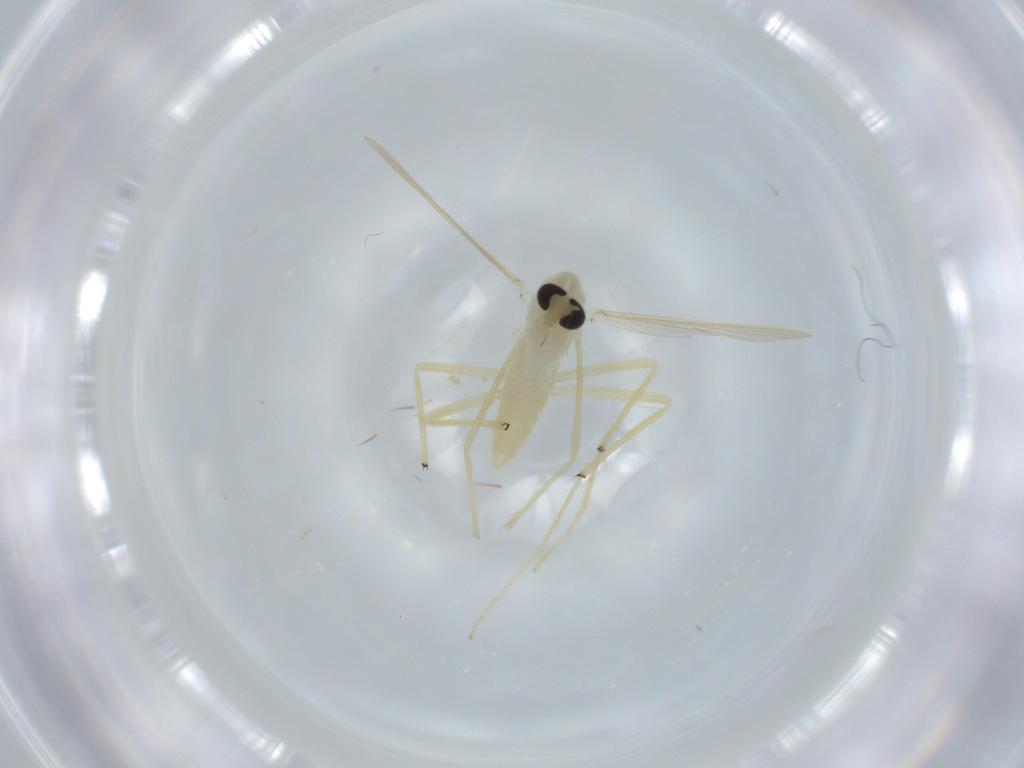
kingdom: Animalia
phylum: Arthropoda
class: Insecta
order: Diptera
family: Chironomidae
